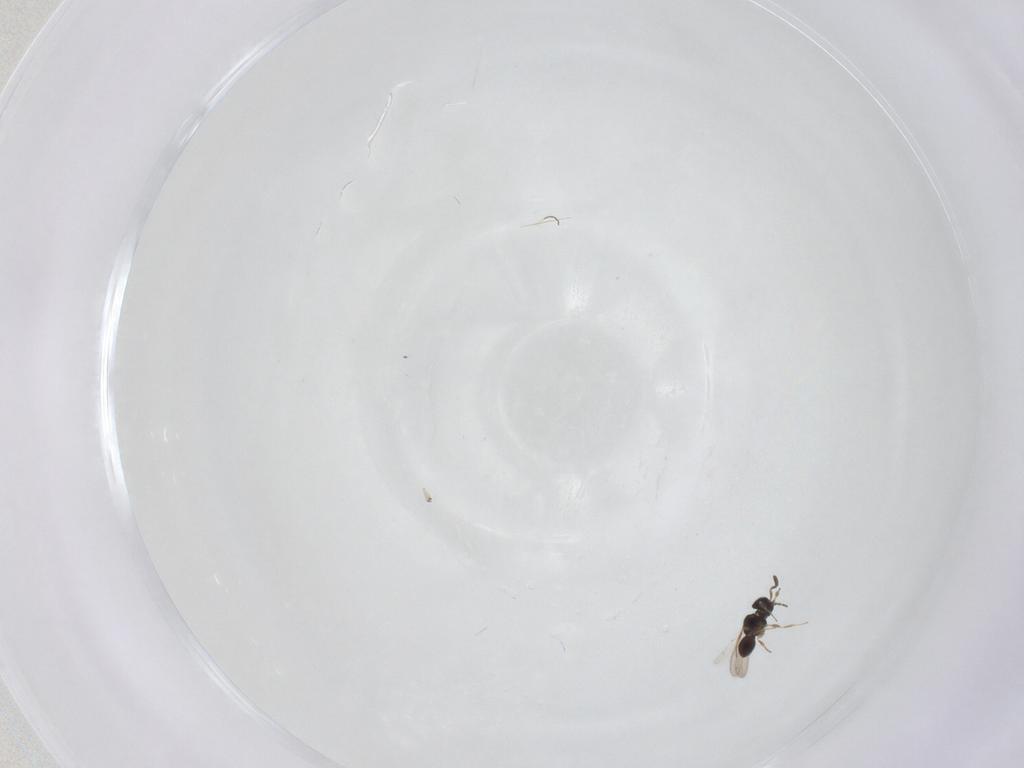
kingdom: Animalia
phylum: Arthropoda
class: Insecta
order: Hymenoptera
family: Scelionidae
